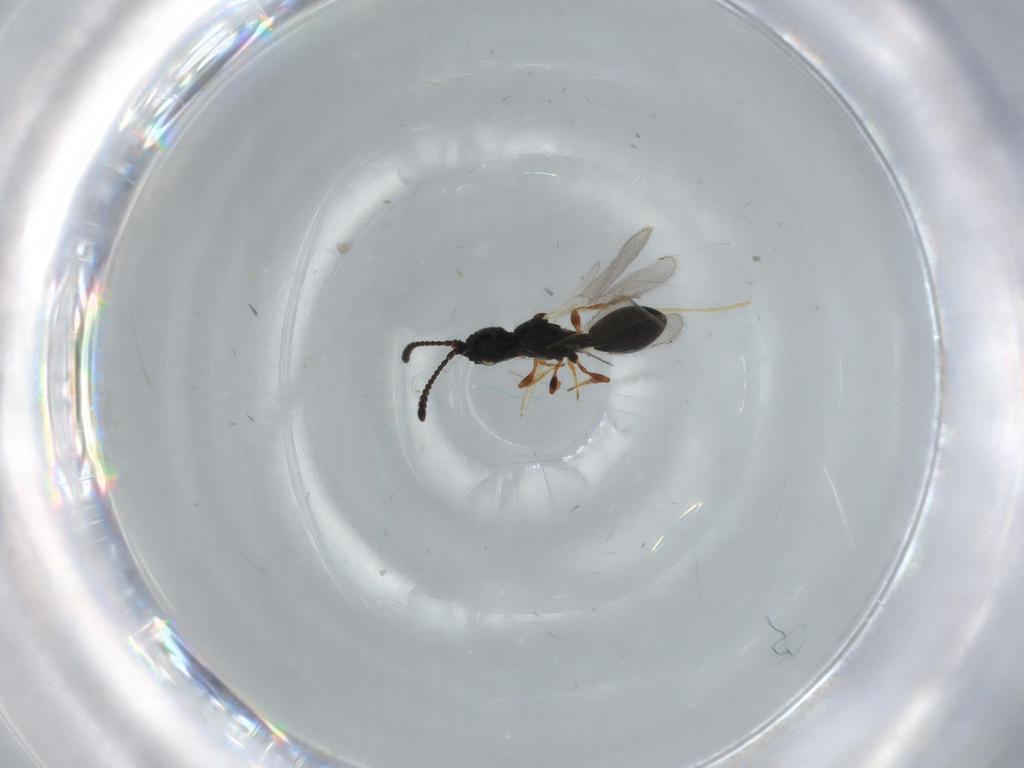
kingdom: Animalia
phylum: Arthropoda
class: Insecta
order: Hymenoptera
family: Diapriidae
